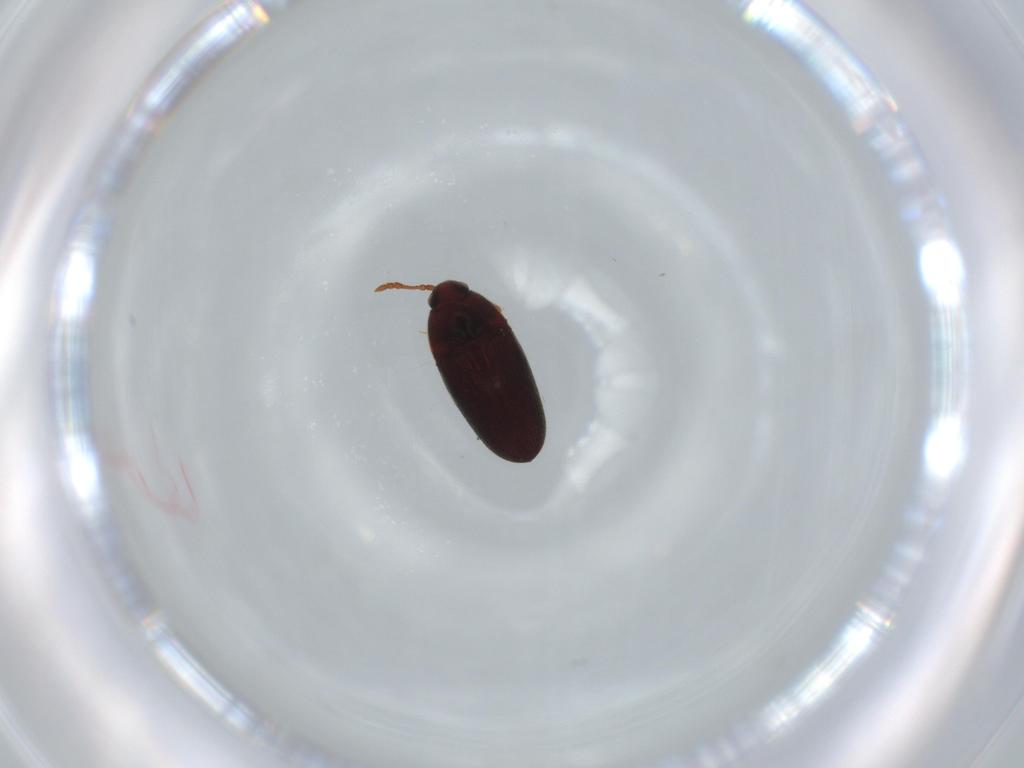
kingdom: Animalia
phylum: Arthropoda
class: Insecta
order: Coleoptera
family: Throscidae
